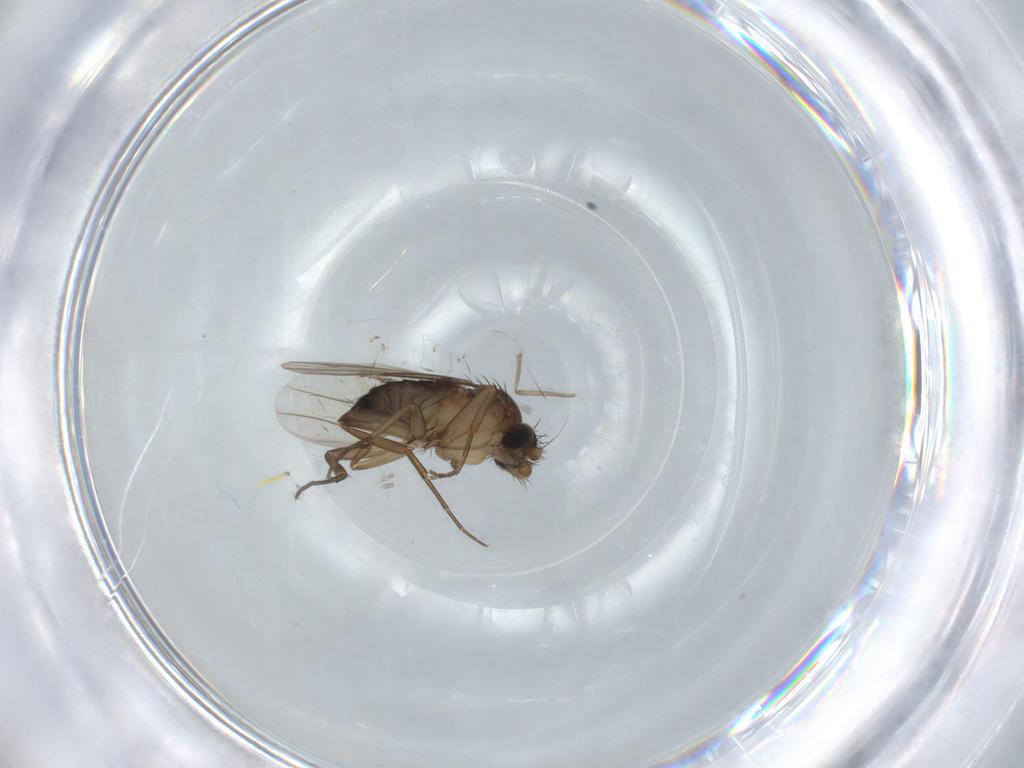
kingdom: Animalia
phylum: Arthropoda
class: Insecta
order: Diptera
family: Phoridae
